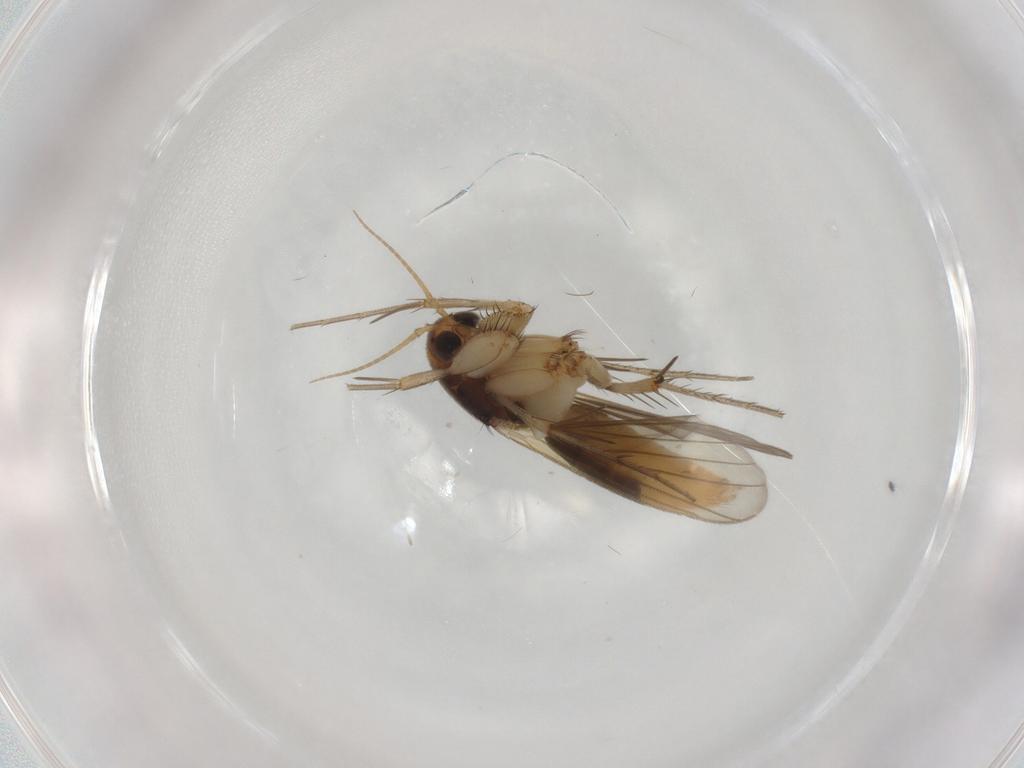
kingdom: Animalia
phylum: Arthropoda
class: Insecta
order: Diptera
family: Mycetophilidae
